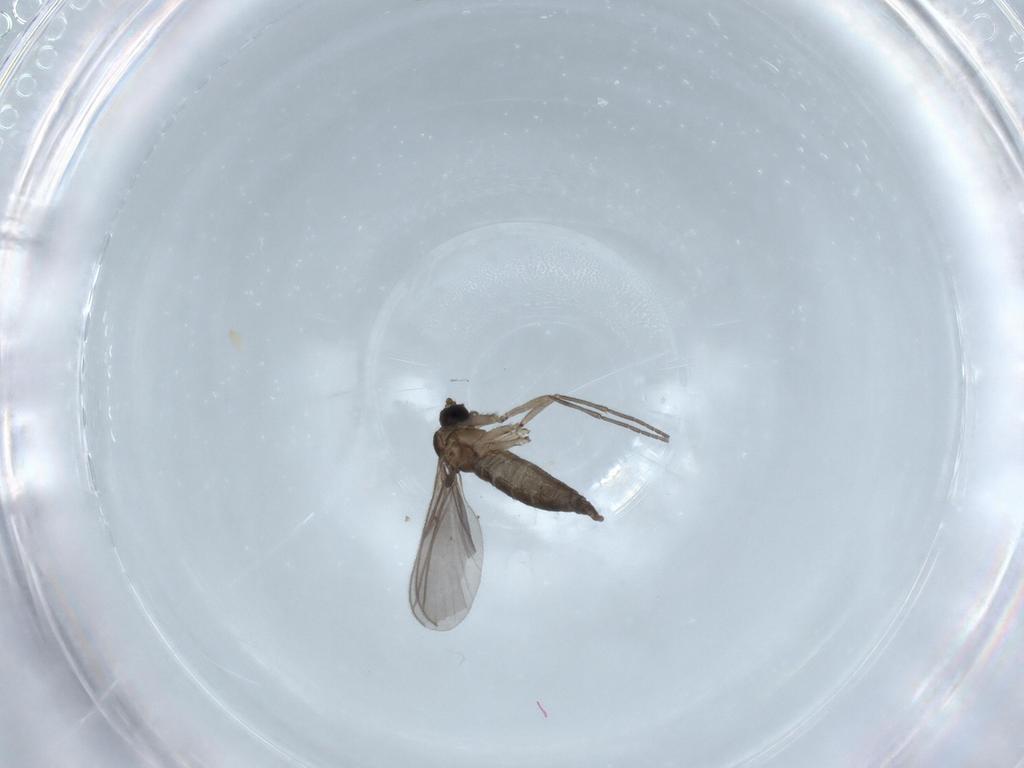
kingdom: Animalia
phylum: Arthropoda
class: Insecta
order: Diptera
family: Sciaridae
